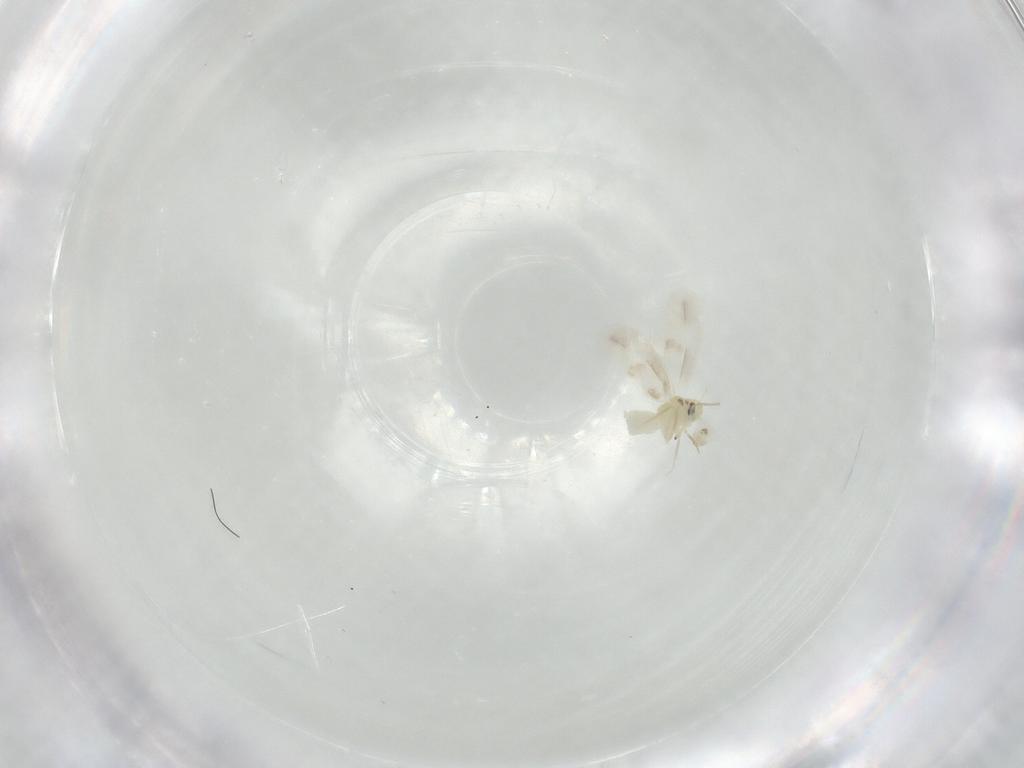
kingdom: Animalia
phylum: Arthropoda
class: Insecta
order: Hemiptera
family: Aleyrodidae
